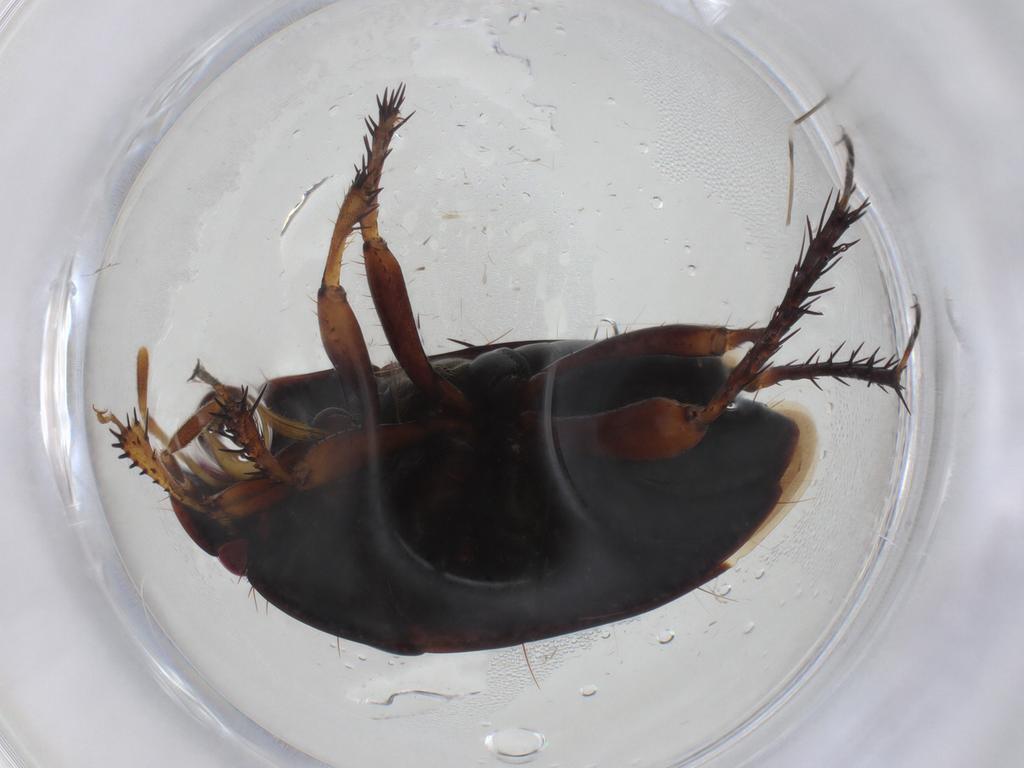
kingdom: Animalia
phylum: Arthropoda
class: Insecta
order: Hemiptera
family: Cydnidae
